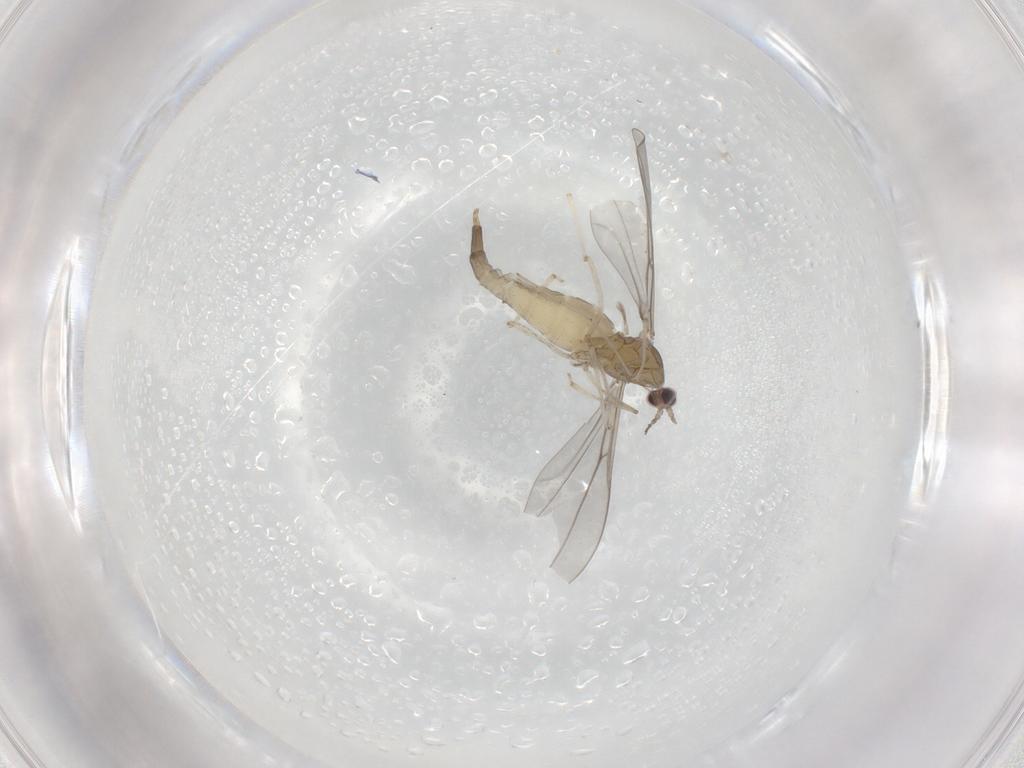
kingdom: Animalia
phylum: Arthropoda
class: Insecta
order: Diptera
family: Cecidomyiidae
